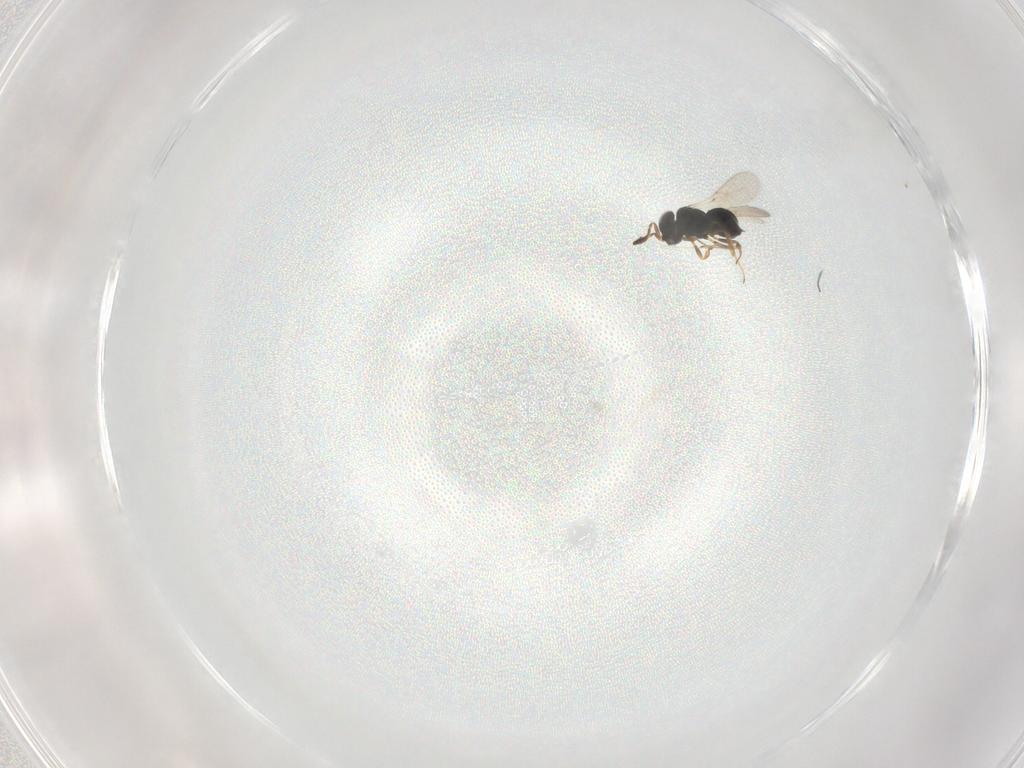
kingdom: Animalia
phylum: Arthropoda
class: Insecta
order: Hymenoptera
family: Scelionidae
